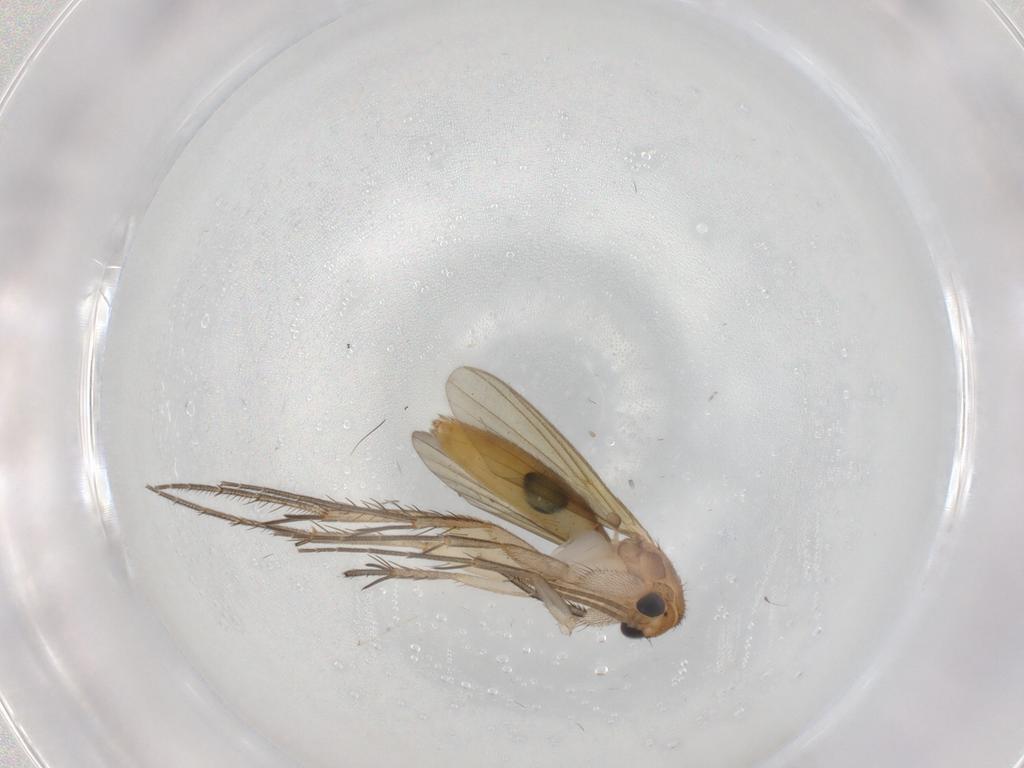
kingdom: Animalia
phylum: Arthropoda
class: Insecta
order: Diptera
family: Mycetophilidae
